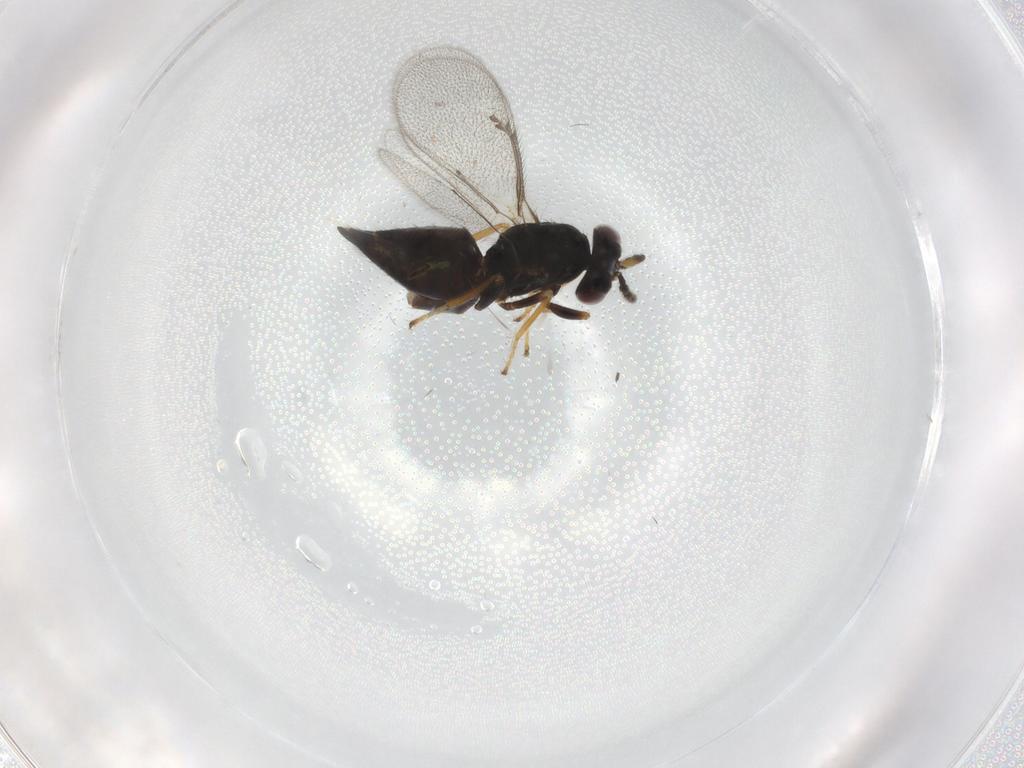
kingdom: Animalia
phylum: Arthropoda
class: Insecta
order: Hymenoptera
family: Eulophidae
